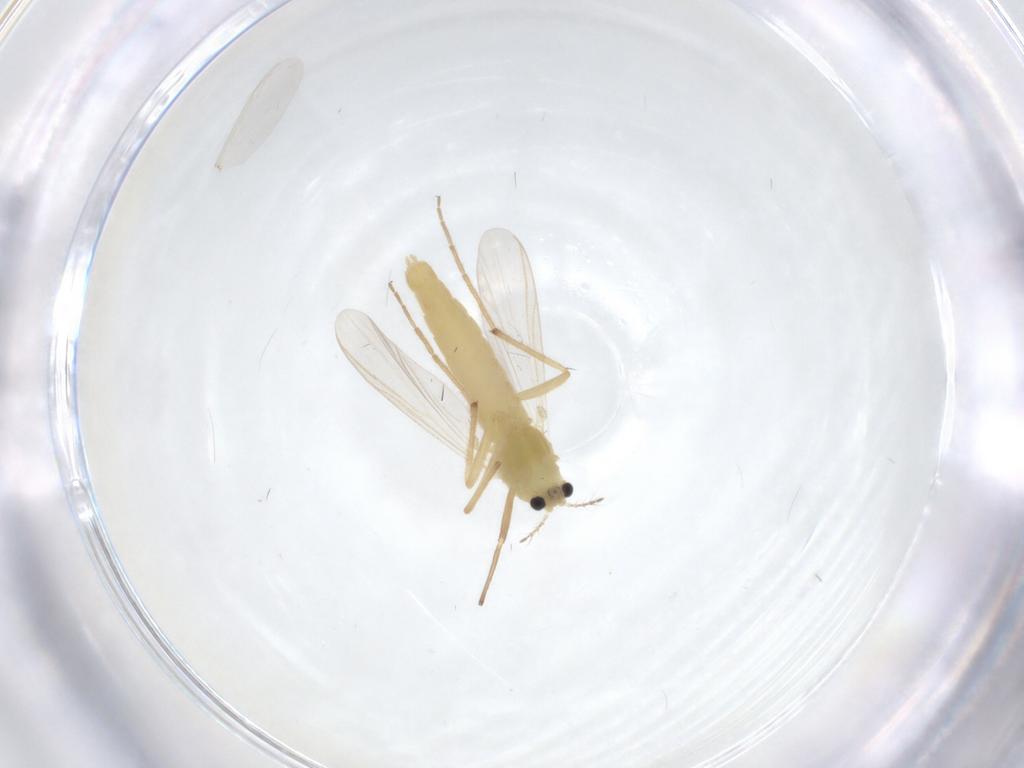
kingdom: Animalia
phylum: Arthropoda
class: Insecta
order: Diptera
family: Chironomidae
